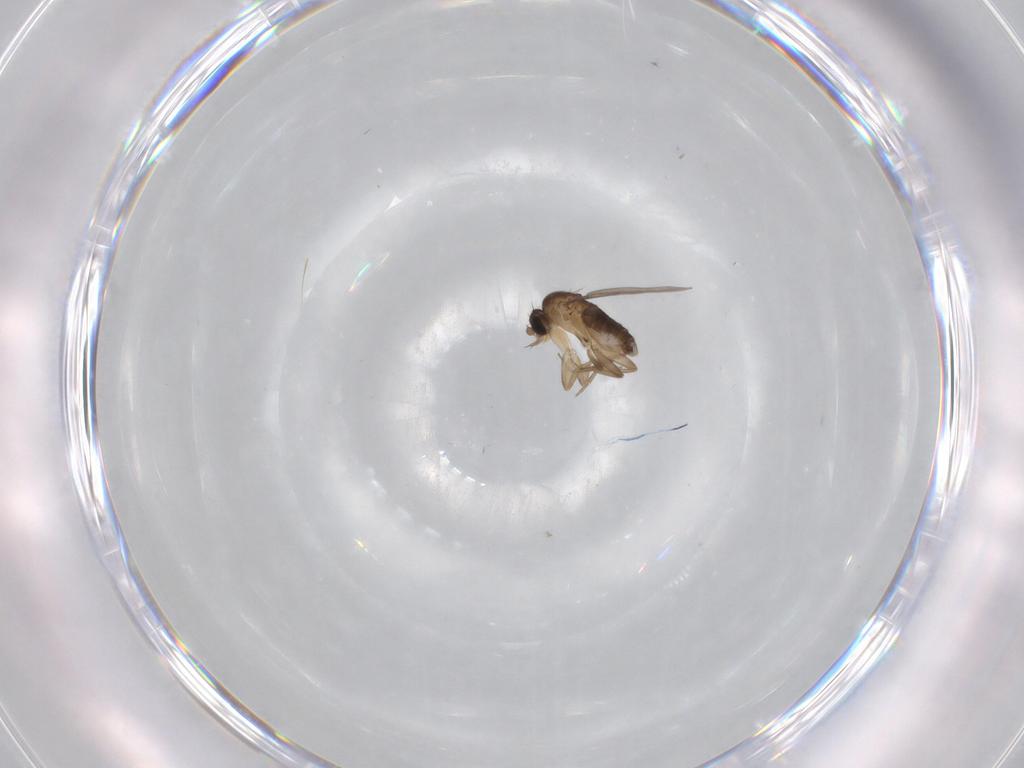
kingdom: Animalia
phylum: Arthropoda
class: Insecta
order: Diptera
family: Phoridae
